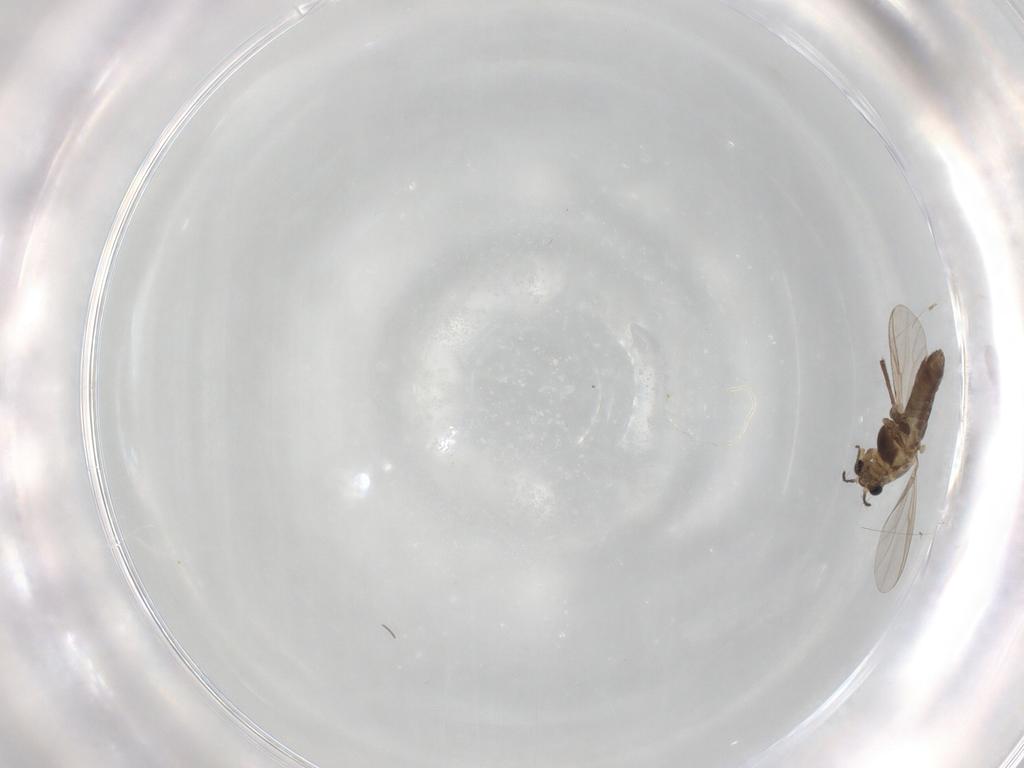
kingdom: Animalia
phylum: Arthropoda
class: Insecta
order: Diptera
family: Chironomidae
